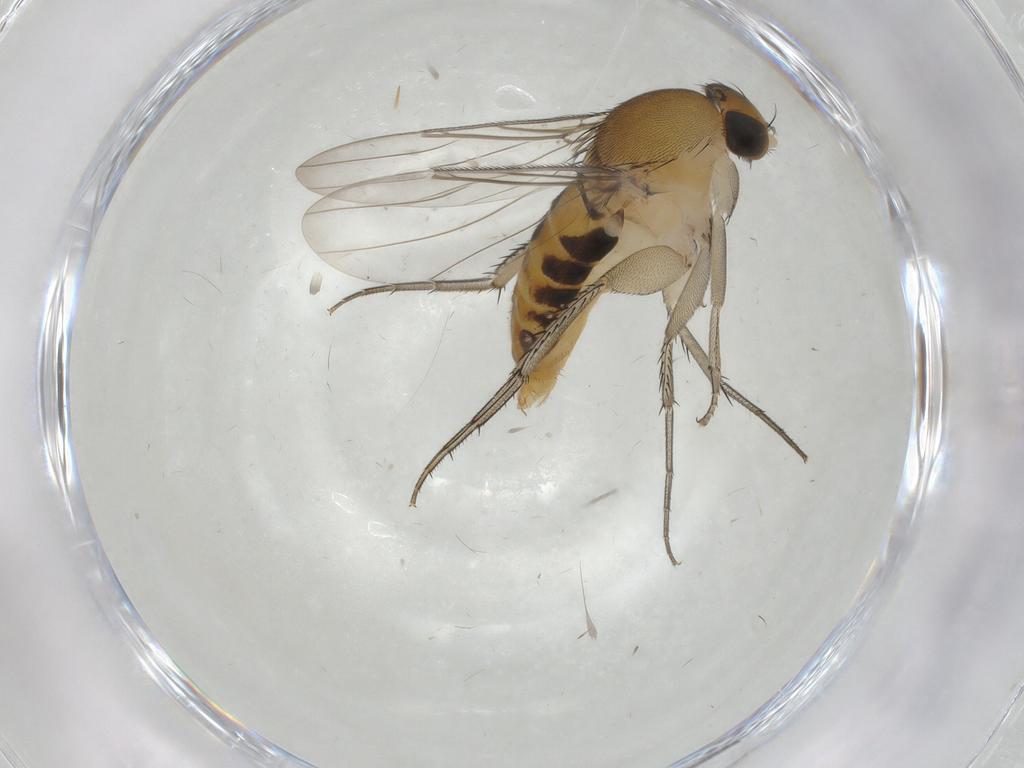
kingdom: Animalia
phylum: Arthropoda
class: Insecta
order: Diptera
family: Phoridae
